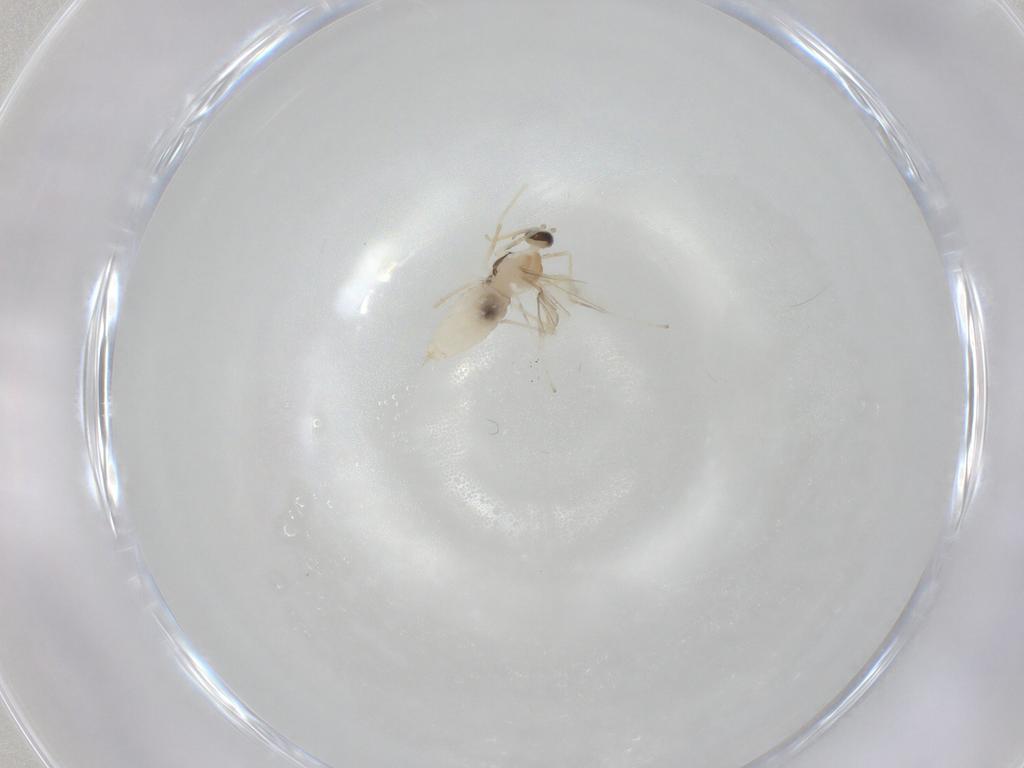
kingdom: Animalia
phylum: Arthropoda
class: Insecta
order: Diptera
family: Cecidomyiidae
